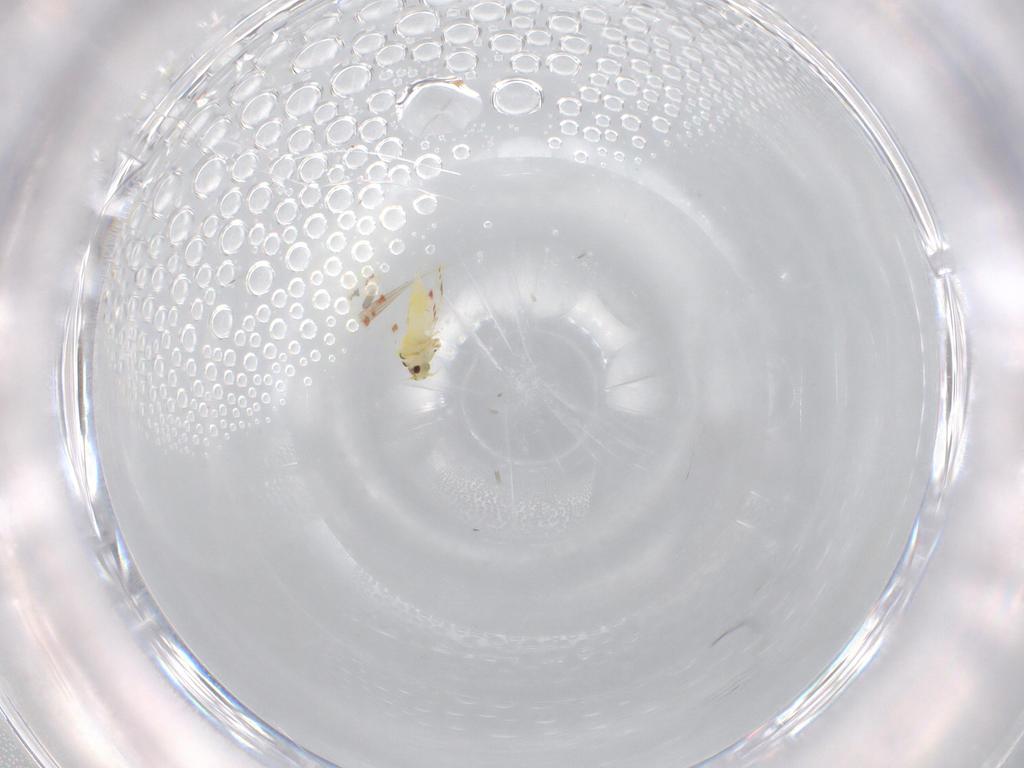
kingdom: Animalia
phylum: Arthropoda
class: Insecta
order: Hemiptera
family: Aleyrodidae
